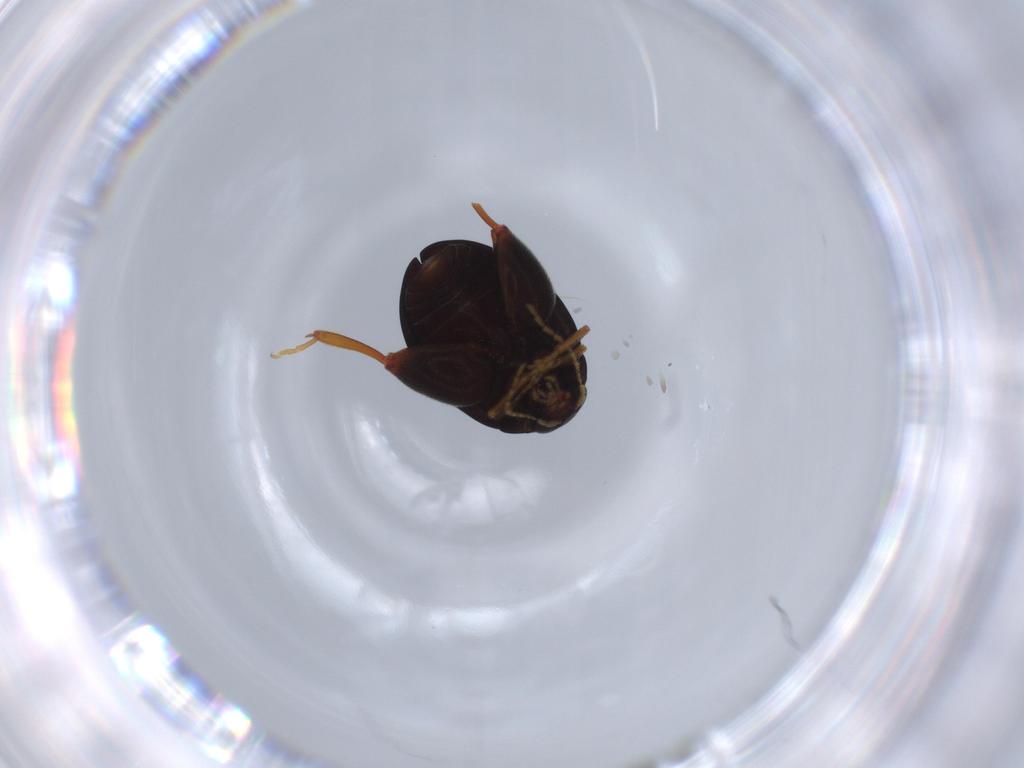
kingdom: Animalia
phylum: Arthropoda
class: Insecta
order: Coleoptera
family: Chrysomelidae
